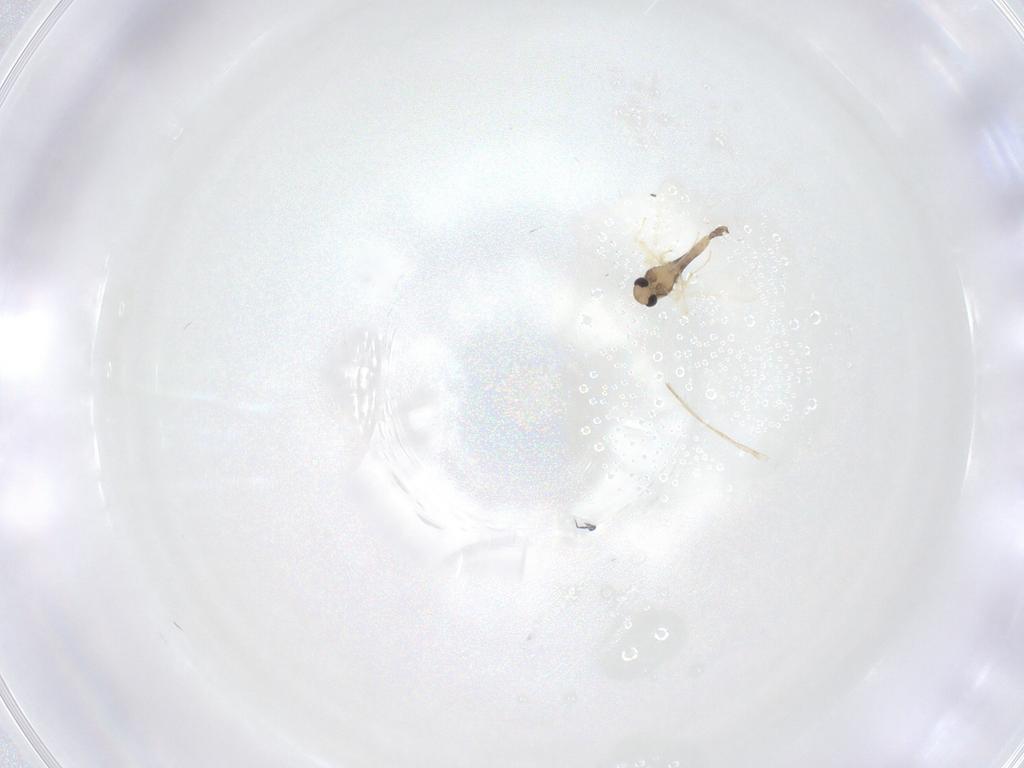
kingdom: Animalia
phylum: Arthropoda
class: Insecta
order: Diptera
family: Chironomidae
